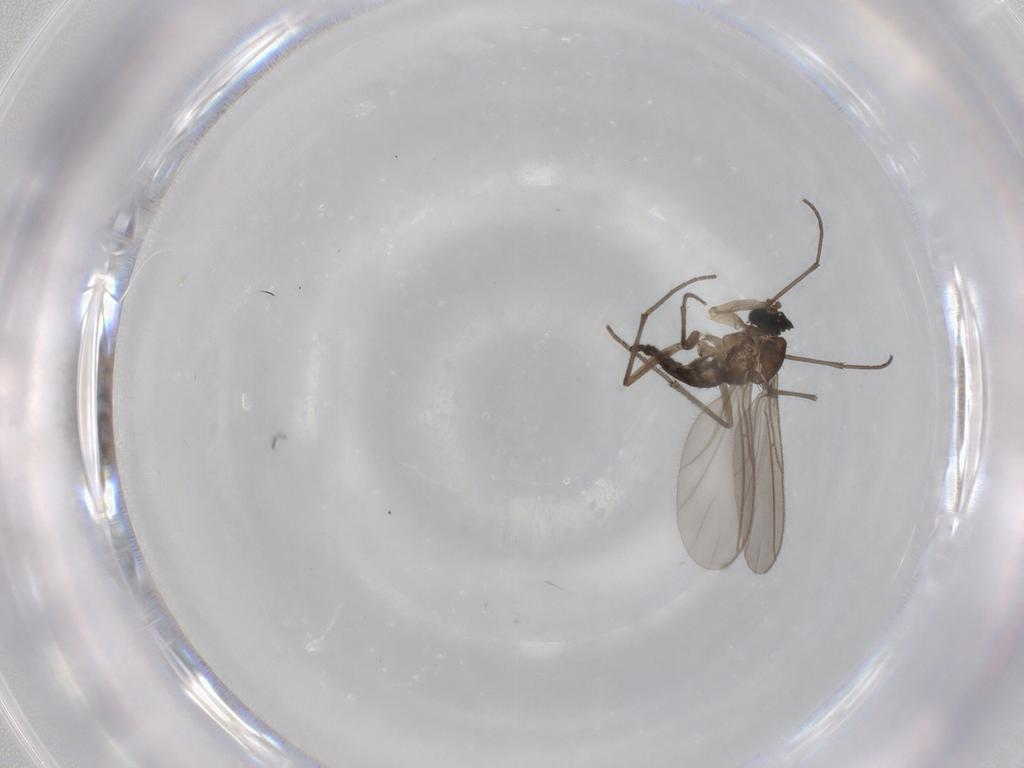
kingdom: Animalia
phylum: Arthropoda
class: Insecta
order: Diptera
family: Sciaridae
